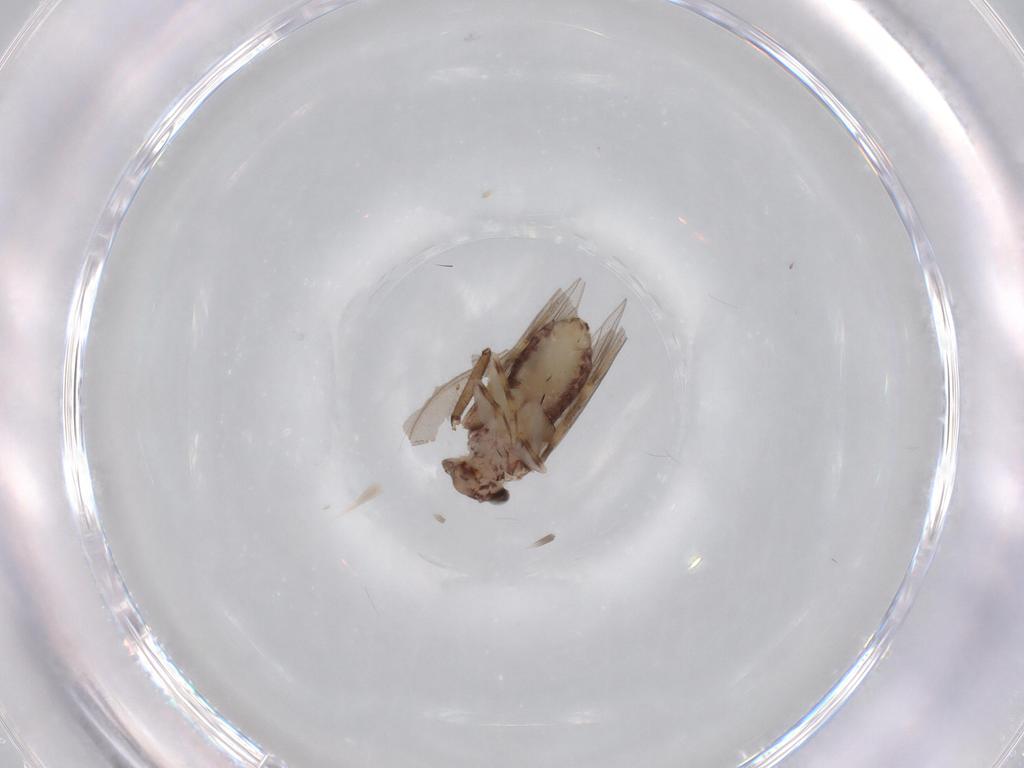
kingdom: Animalia
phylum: Arthropoda
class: Insecta
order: Psocodea
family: Lepidopsocidae
